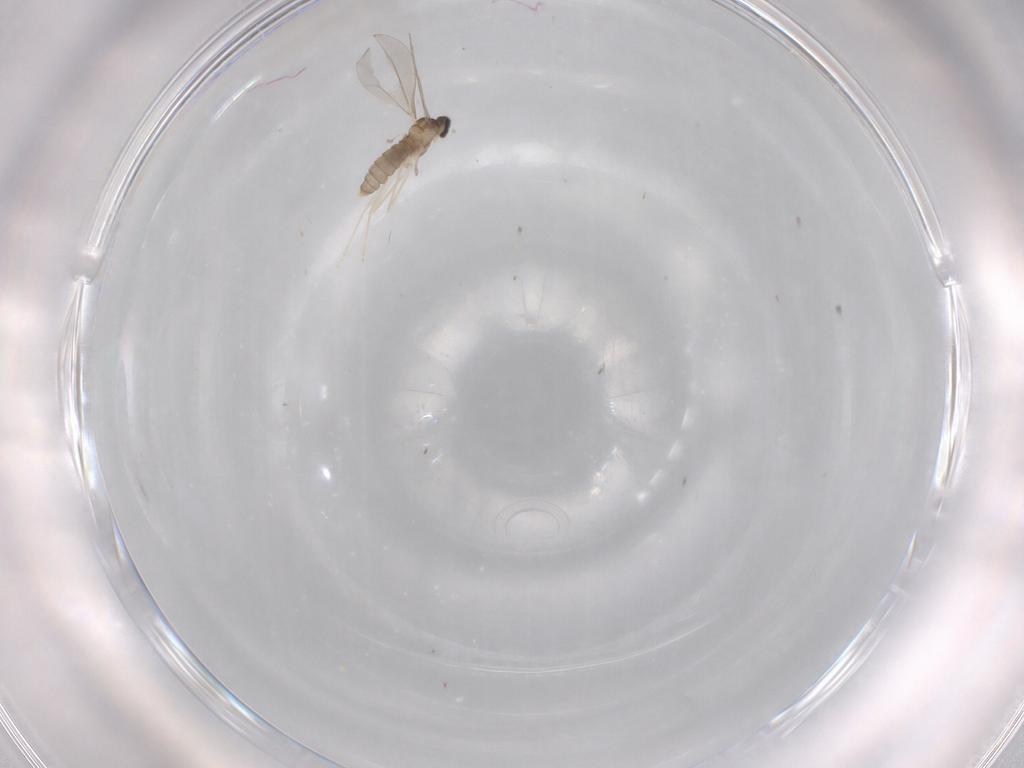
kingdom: Animalia
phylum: Arthropoda
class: Insecta
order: Diptera
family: Cecidomyiidae
